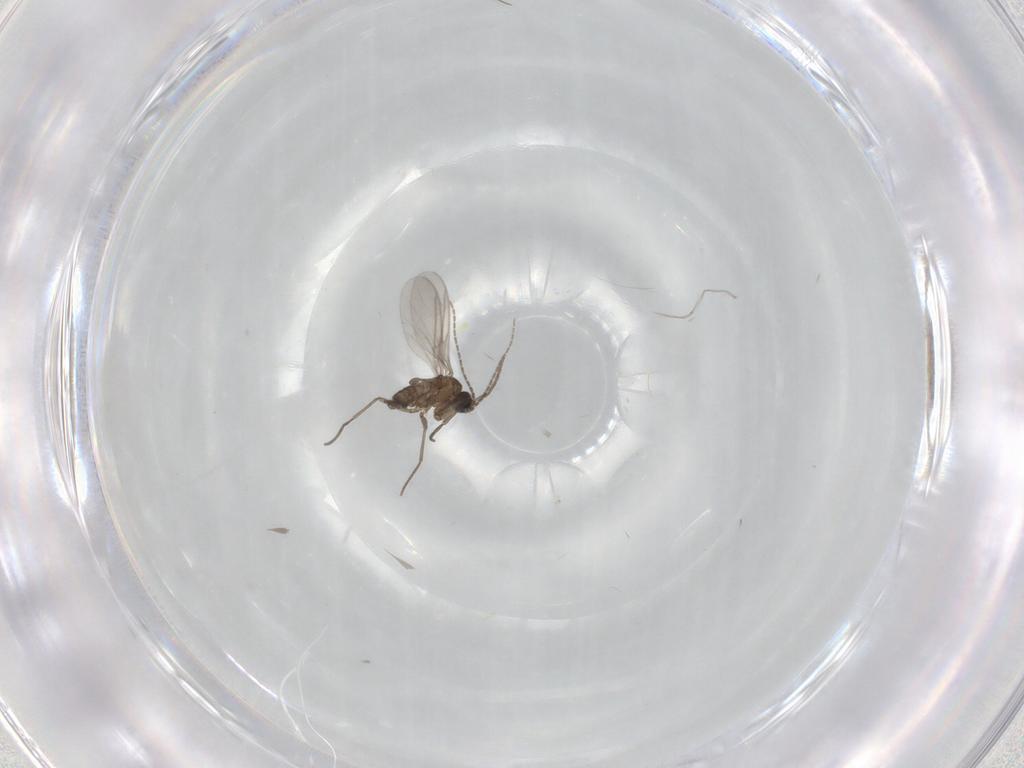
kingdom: Animalia
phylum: Arthropoda
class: Insecta
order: Diptera
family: Sciaridae
